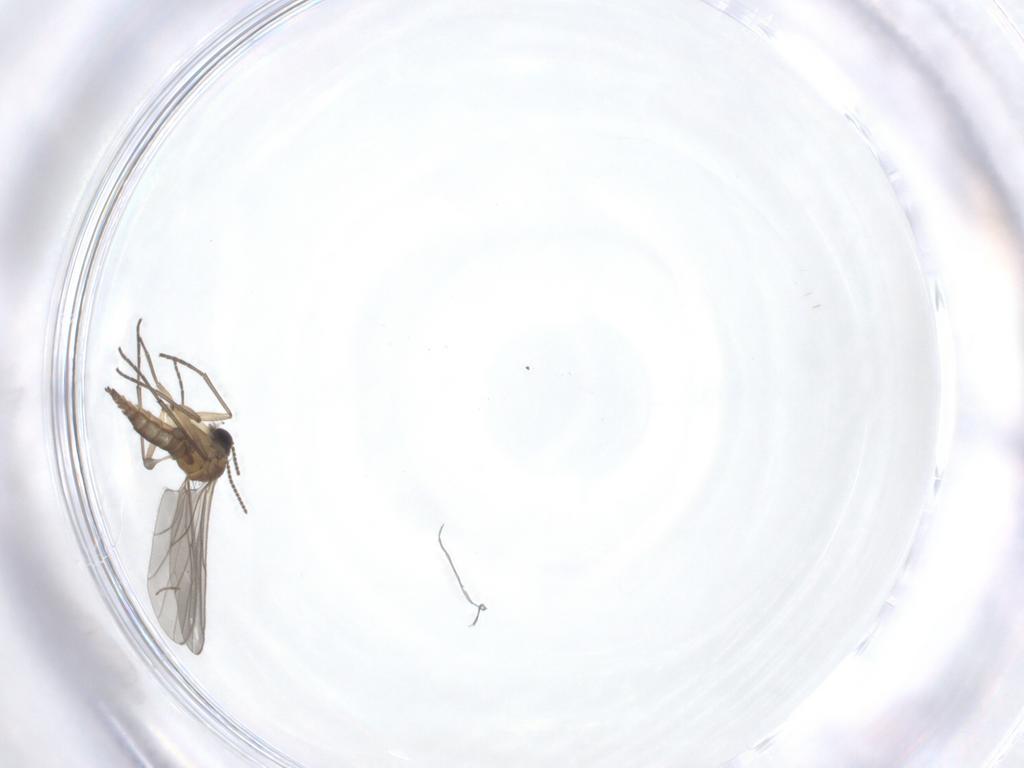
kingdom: Animalia
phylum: Arthropoda
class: Insecta
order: Diptera
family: Sciaridae
